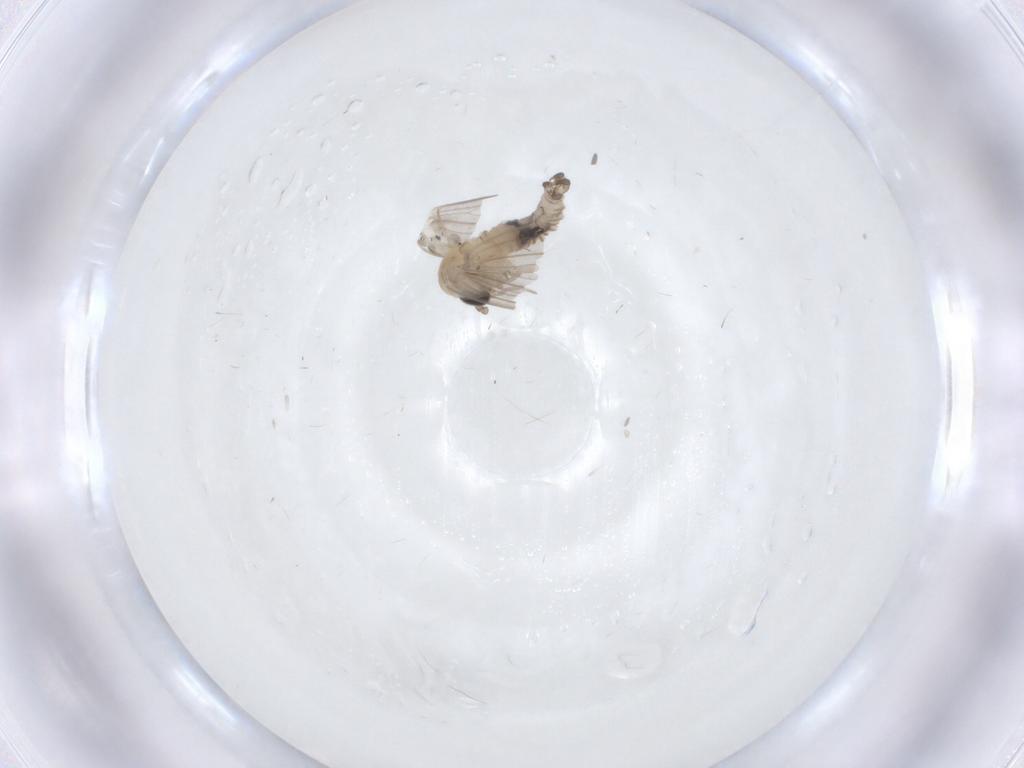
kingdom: Animalia
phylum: Arthropoda
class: Insecta
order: Diptera
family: Psychodidae
